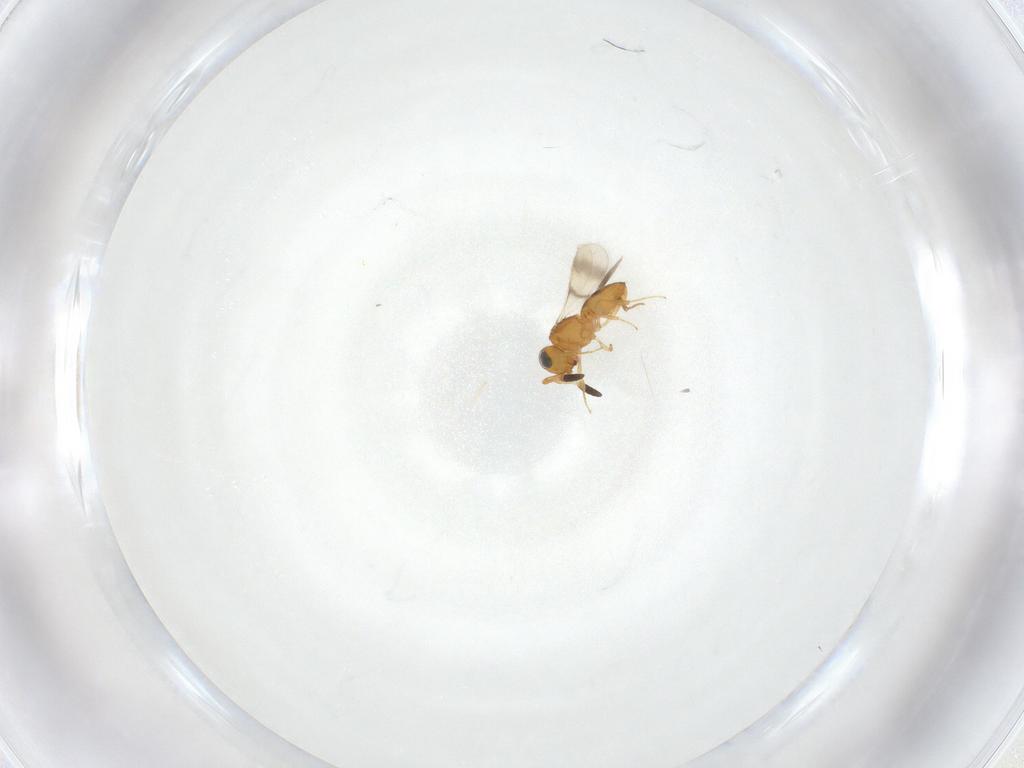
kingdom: Animalia
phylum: Arthropoda
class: Insecta
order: Hymenoptera
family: Scelionidae
